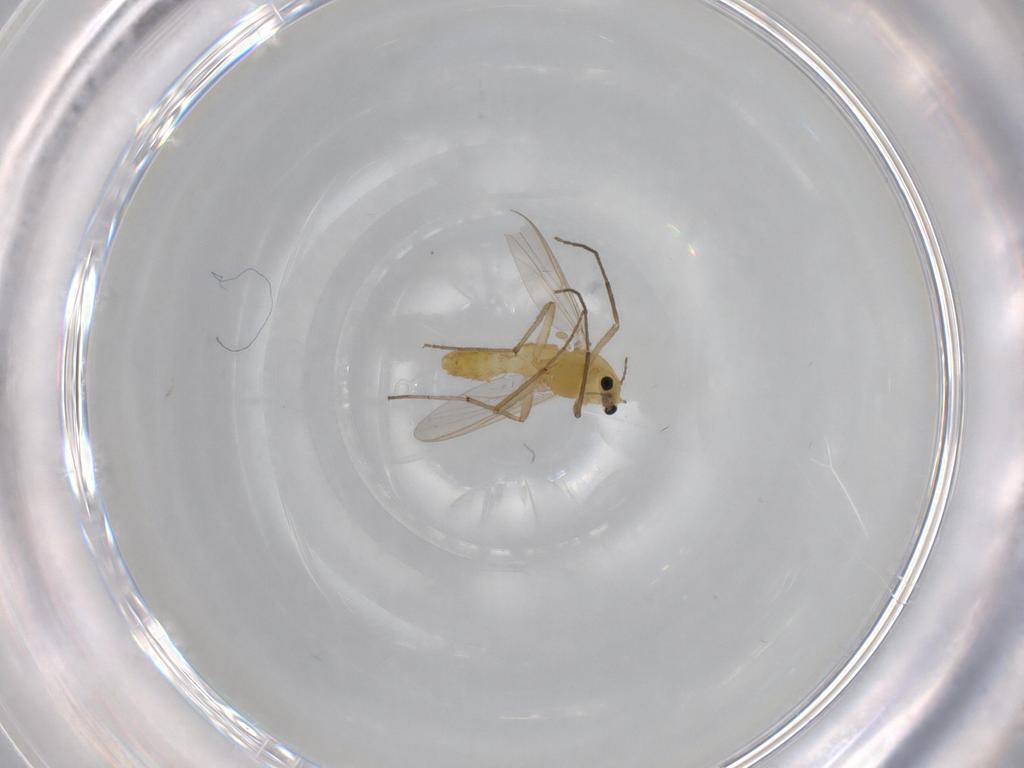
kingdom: Animalia
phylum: Arthropoda
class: Insecta
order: Diptera
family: Chironomidae
